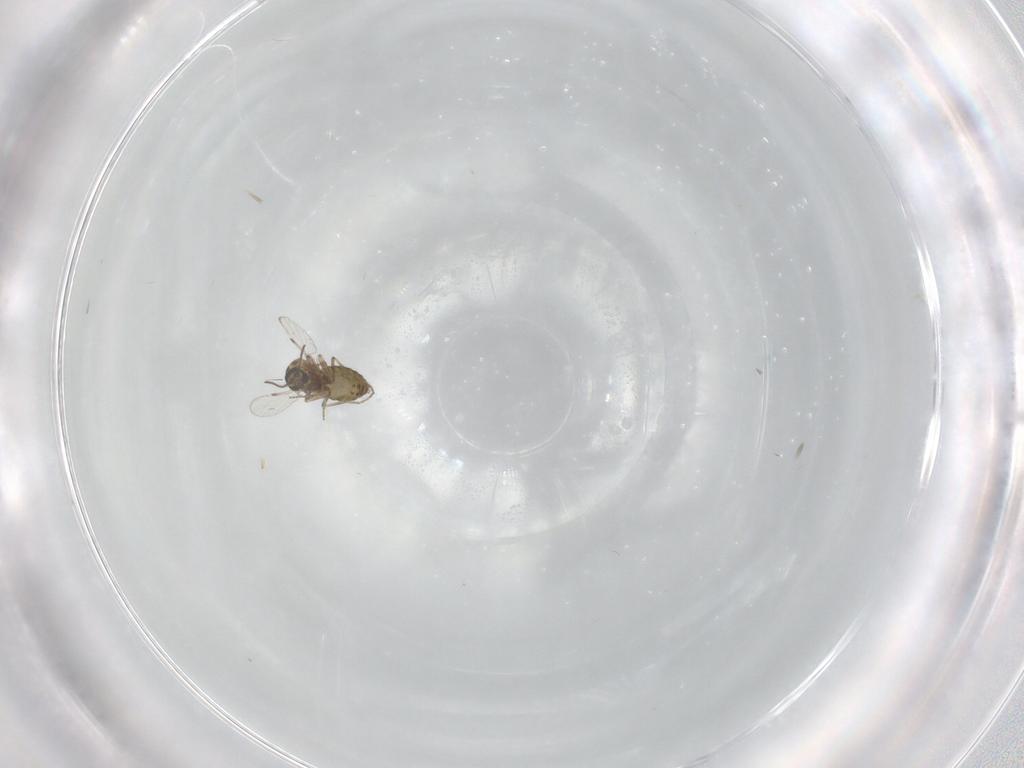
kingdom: Animalia
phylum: Arthropoda
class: Insecta
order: Diptera
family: Ceratopogonidae
